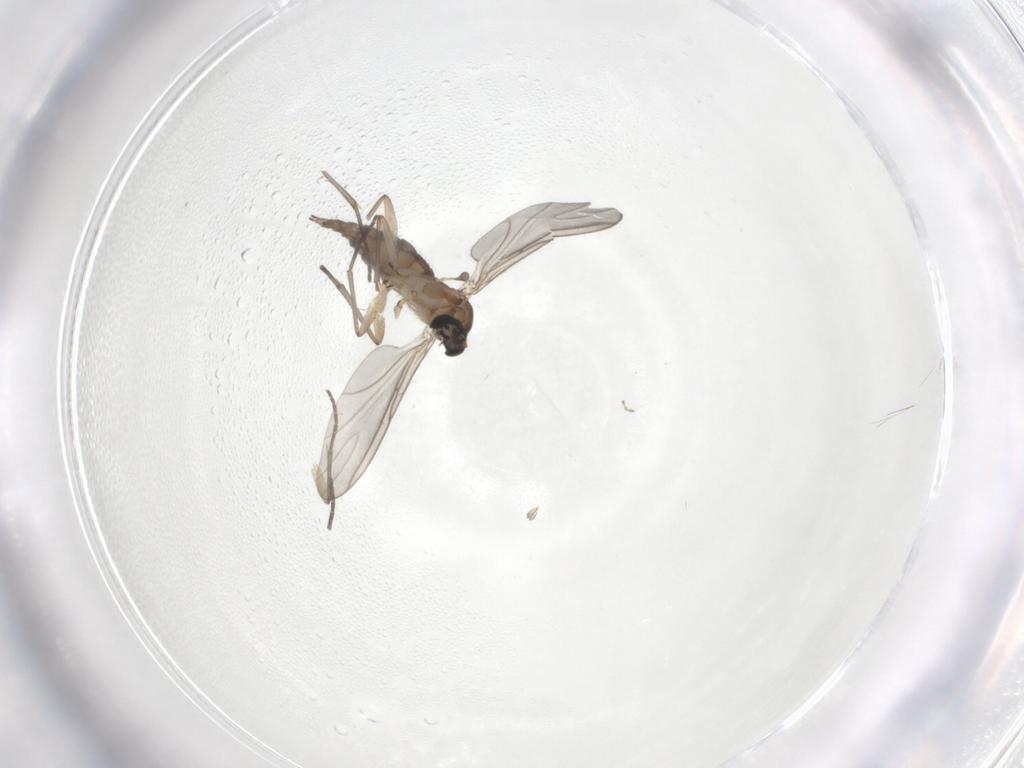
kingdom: Animalia
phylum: Arthropoda
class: Insecta
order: Diptera
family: Sciaridae
